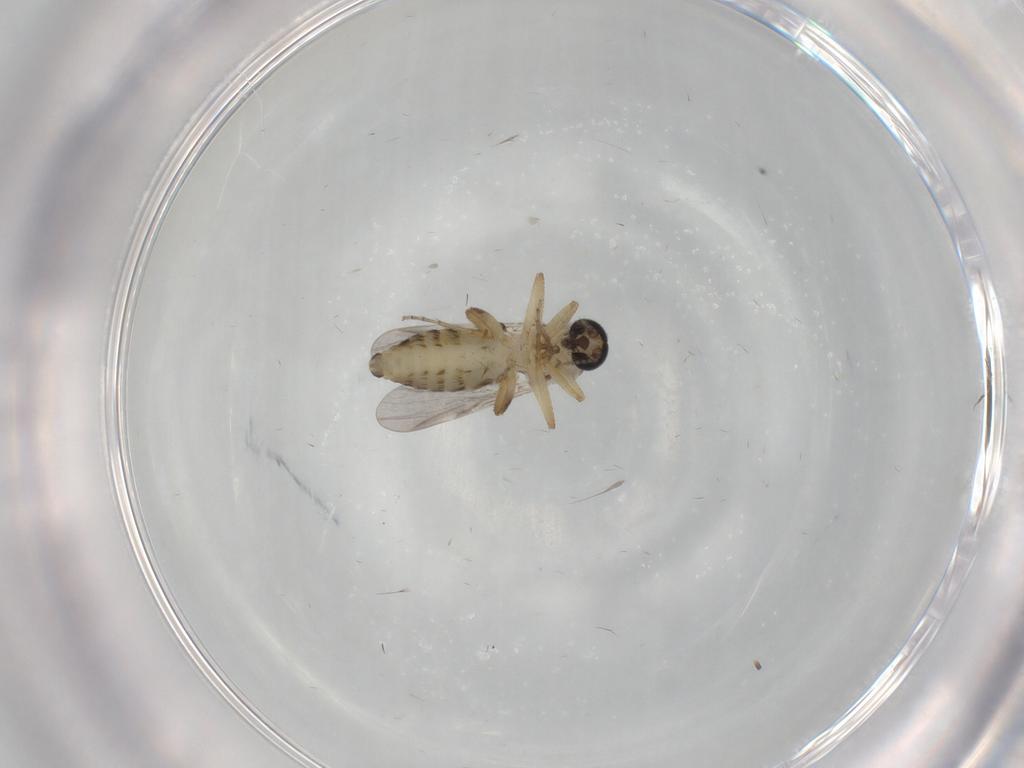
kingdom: Animalia
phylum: Arthropoda
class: Insecta
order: Diptera
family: Ceratopogonidae
